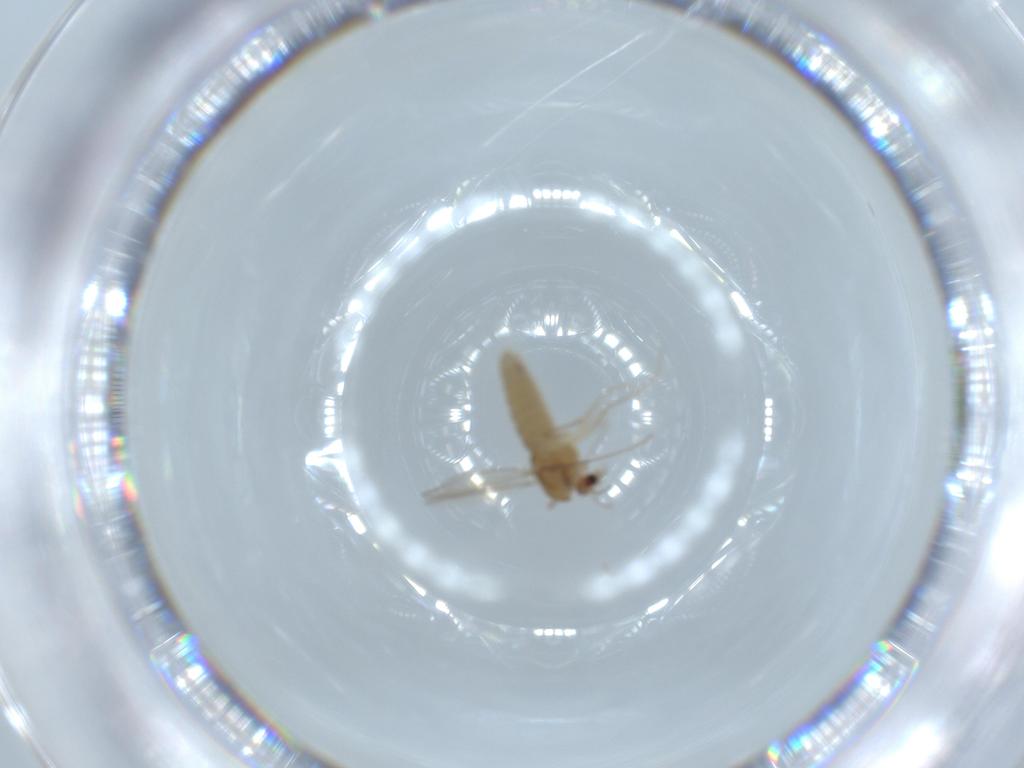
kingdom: Animalia
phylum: Arthropoda
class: Insecta
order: Diptera
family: Chironomidae
